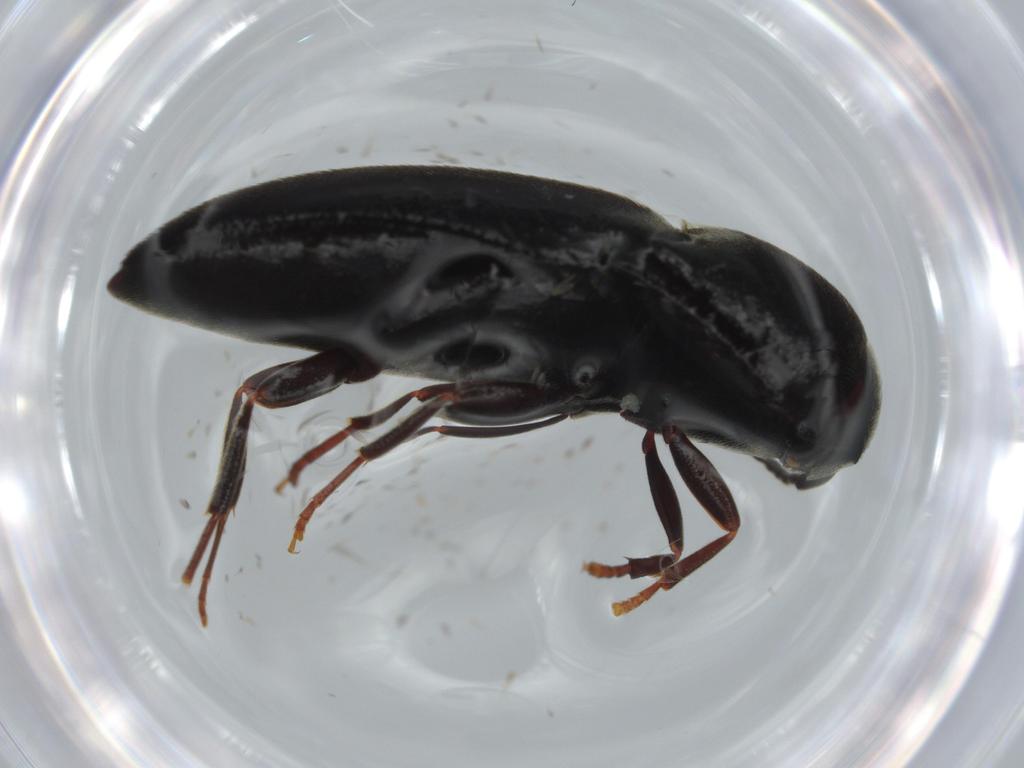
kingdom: Animalia
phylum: Arthropoda
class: Insecta
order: Coleoptera
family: Eucnemidae
